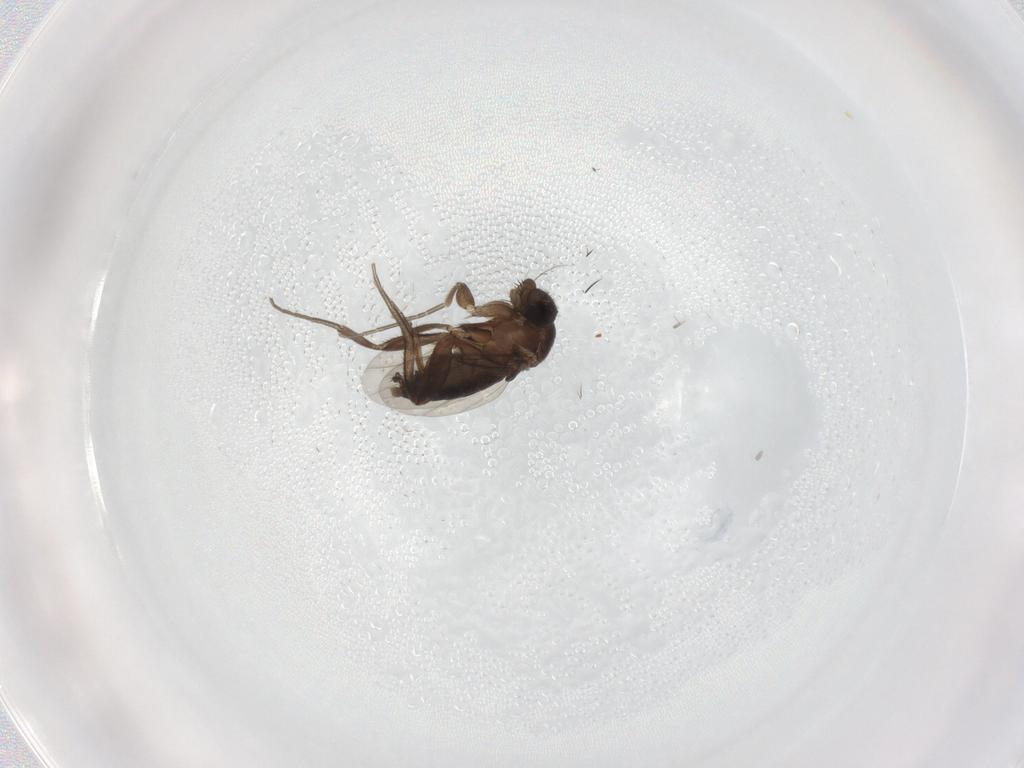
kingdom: Animalia
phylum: Arthropoda
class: Insecta
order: Diptera
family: Phoridae
